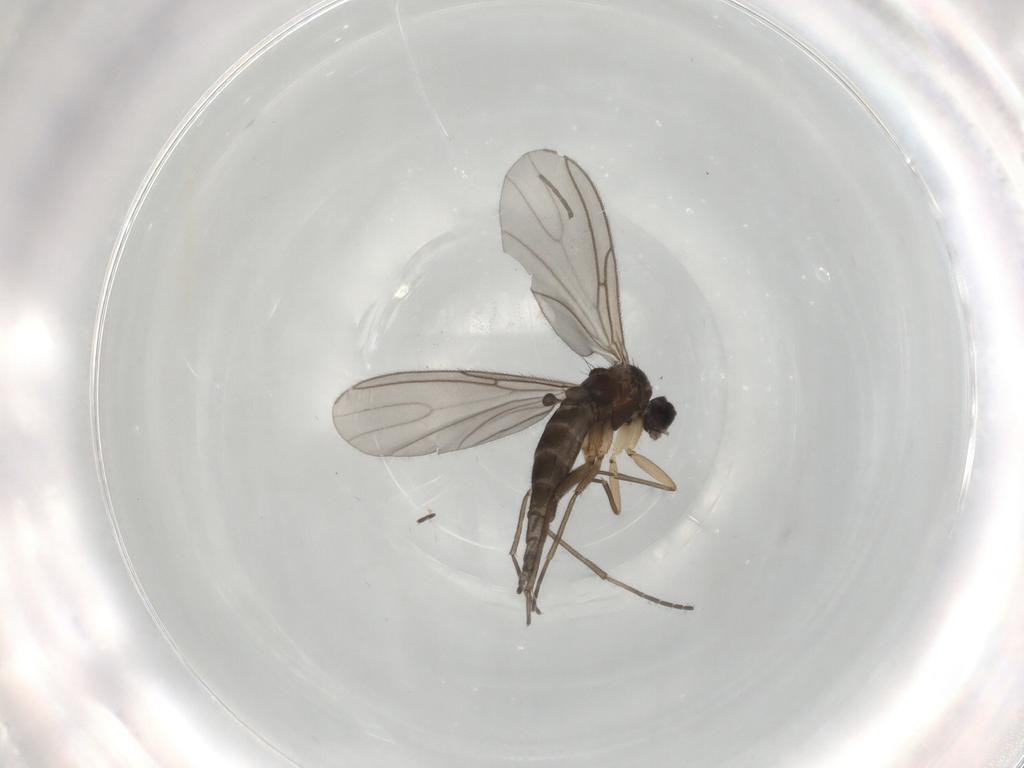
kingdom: Animalia
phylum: Arthropoda
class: Insecta
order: Diptera
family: Sciaridae
